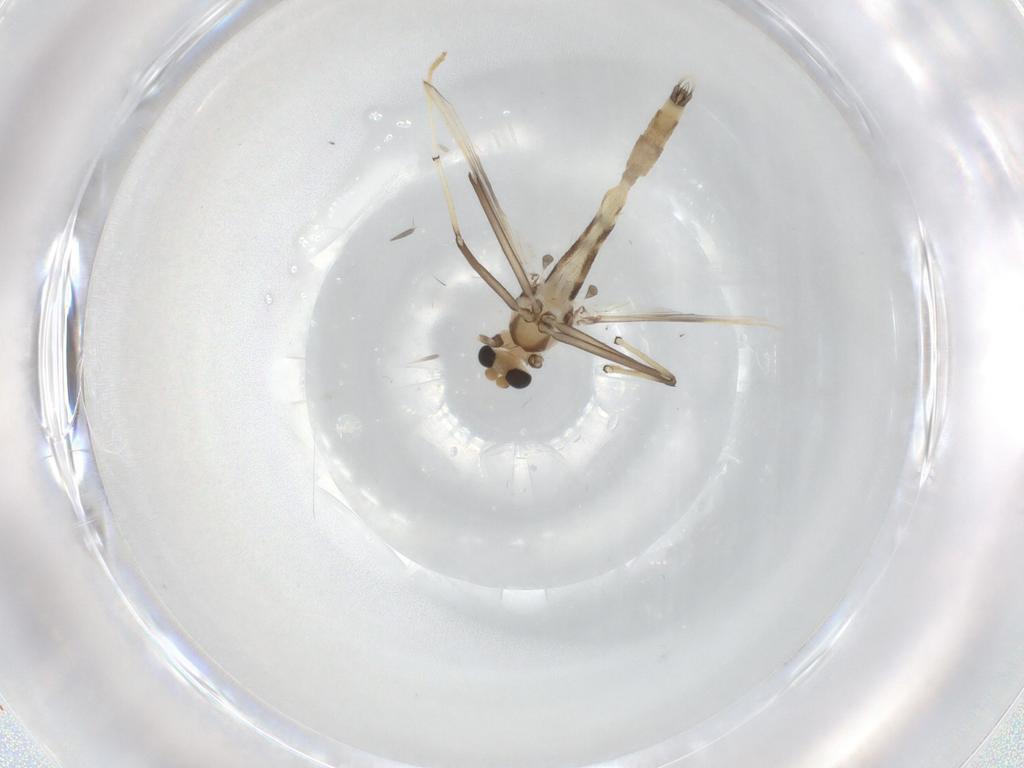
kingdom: Animalia
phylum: Arthropoda
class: Insecta
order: Diptera
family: Chironomidae
